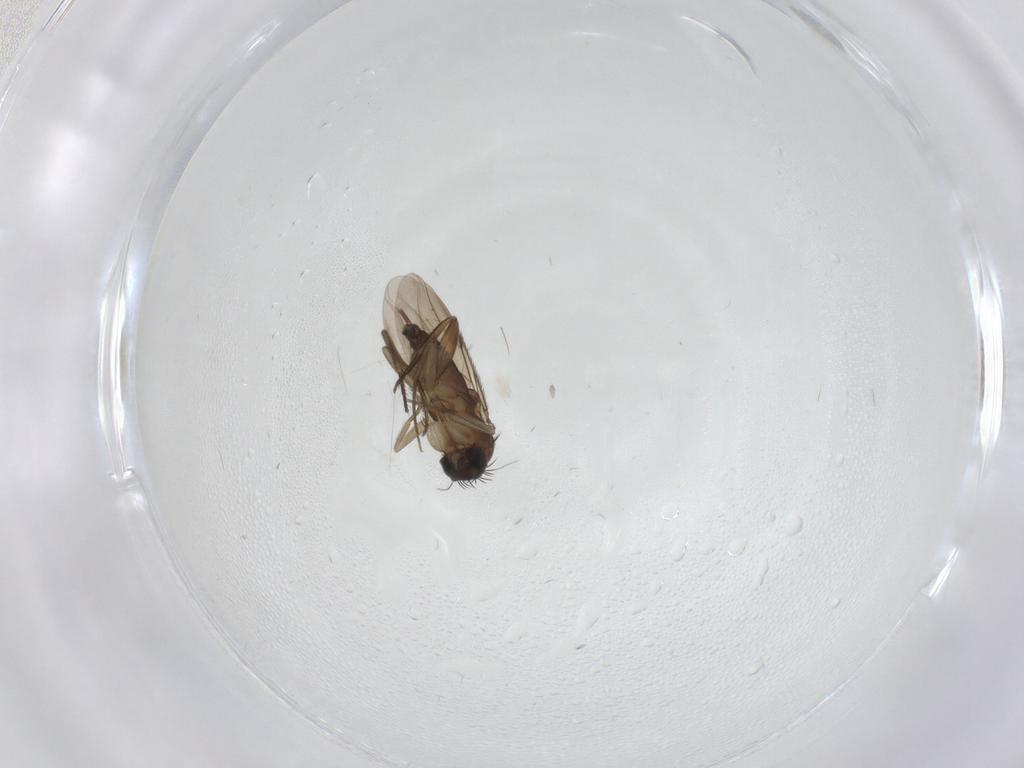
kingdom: Animalia
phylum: Arthropoda
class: Insecta
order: Diptera
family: Phoridae
